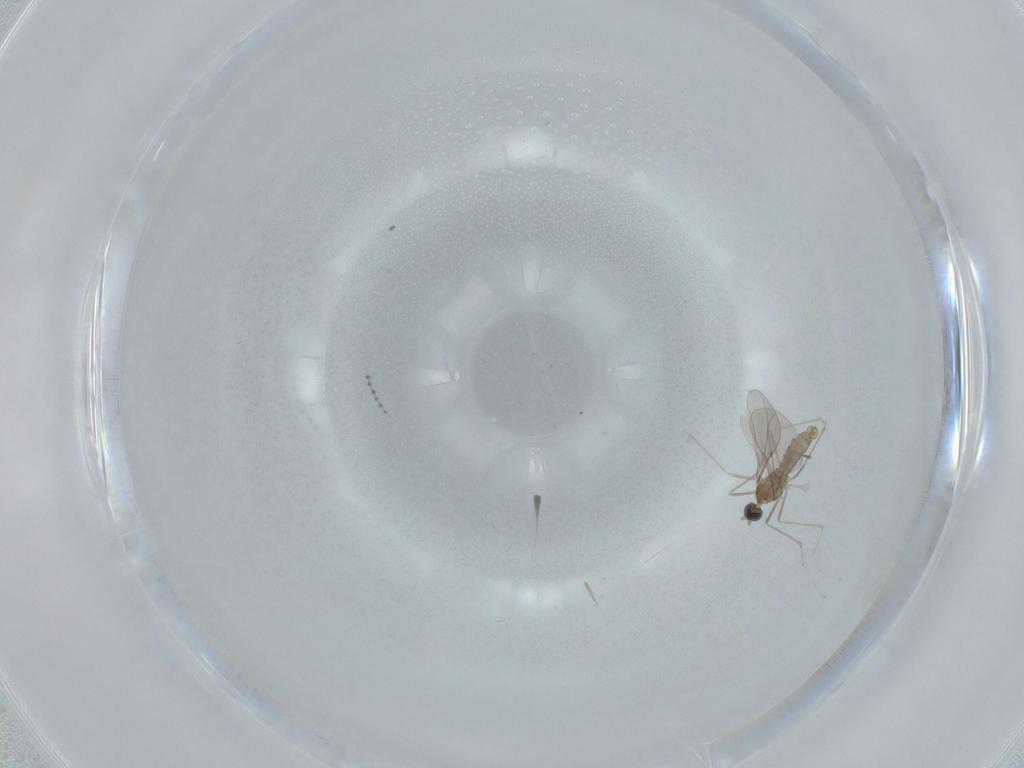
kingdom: Animalia
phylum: Arthropoda
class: Insecta
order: Diptera
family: Cecidomyiidae
